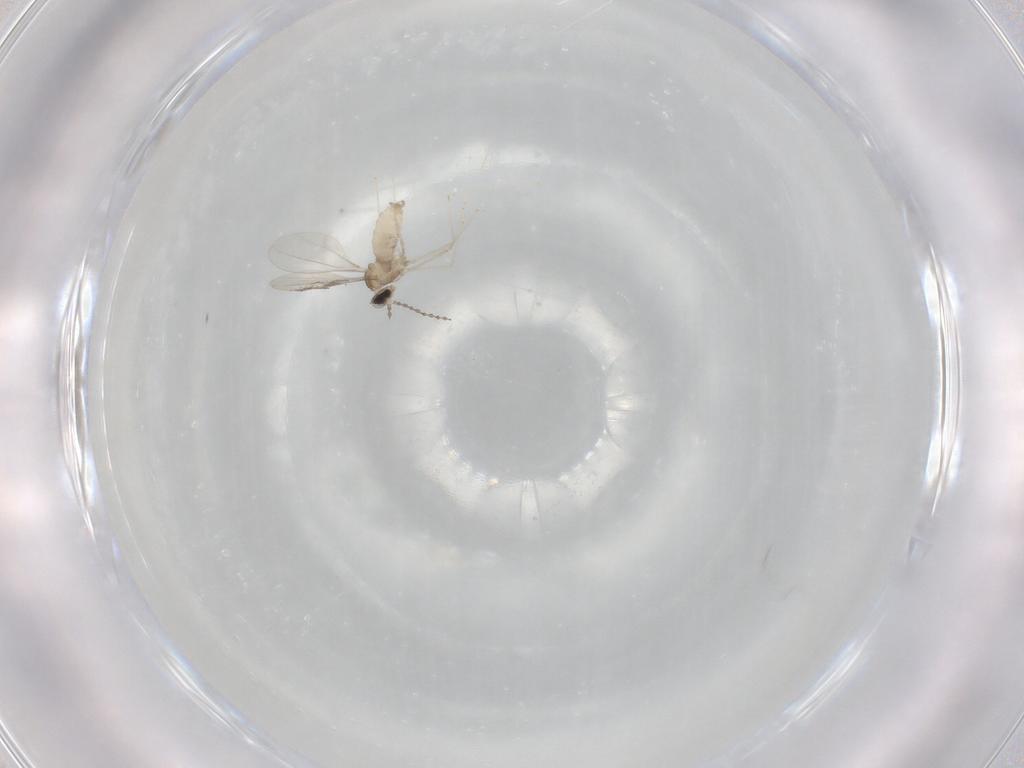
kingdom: Animalia
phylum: Arthropoda
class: Insecta
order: Diptera
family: Cecidomyiidae
